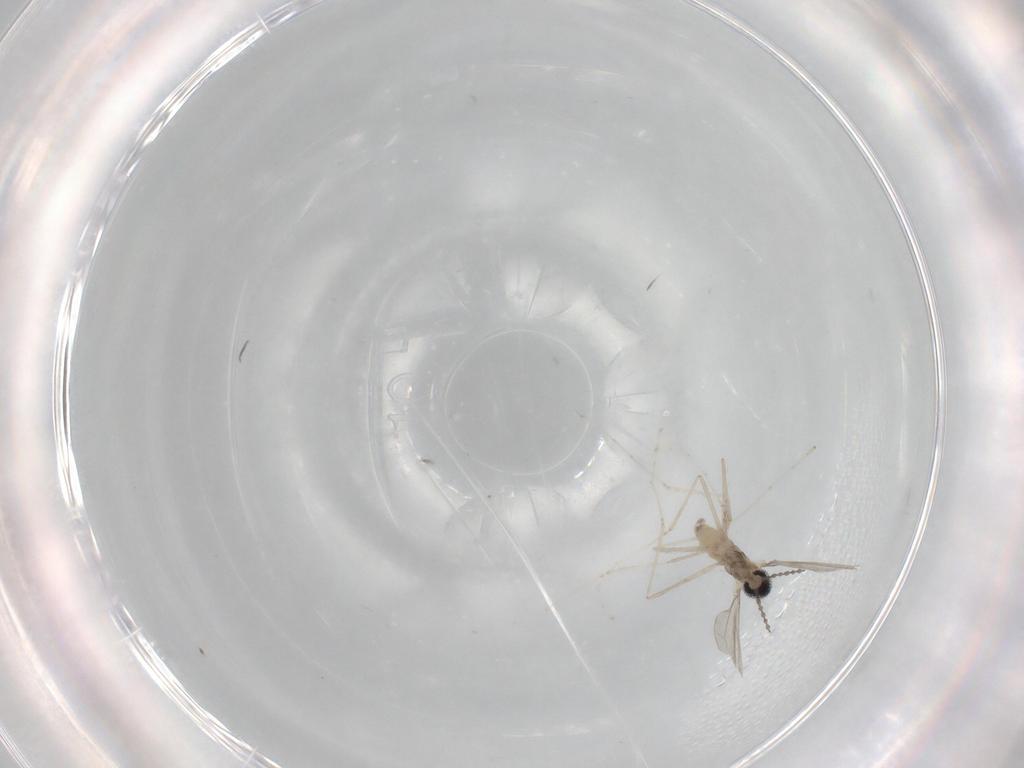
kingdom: Animalia
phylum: Arthropoda
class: Insecta
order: Diptera
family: Cecidomyiidae
